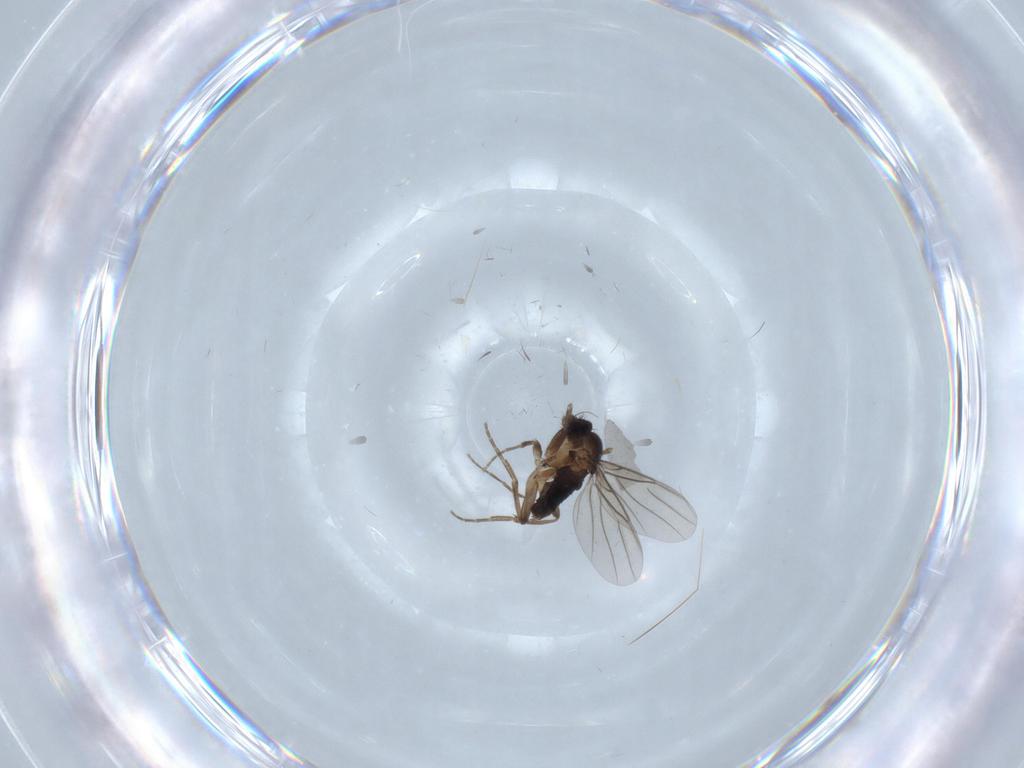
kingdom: Animalia
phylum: Arthropoda
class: Insecta
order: Diptera
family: Phoridae
